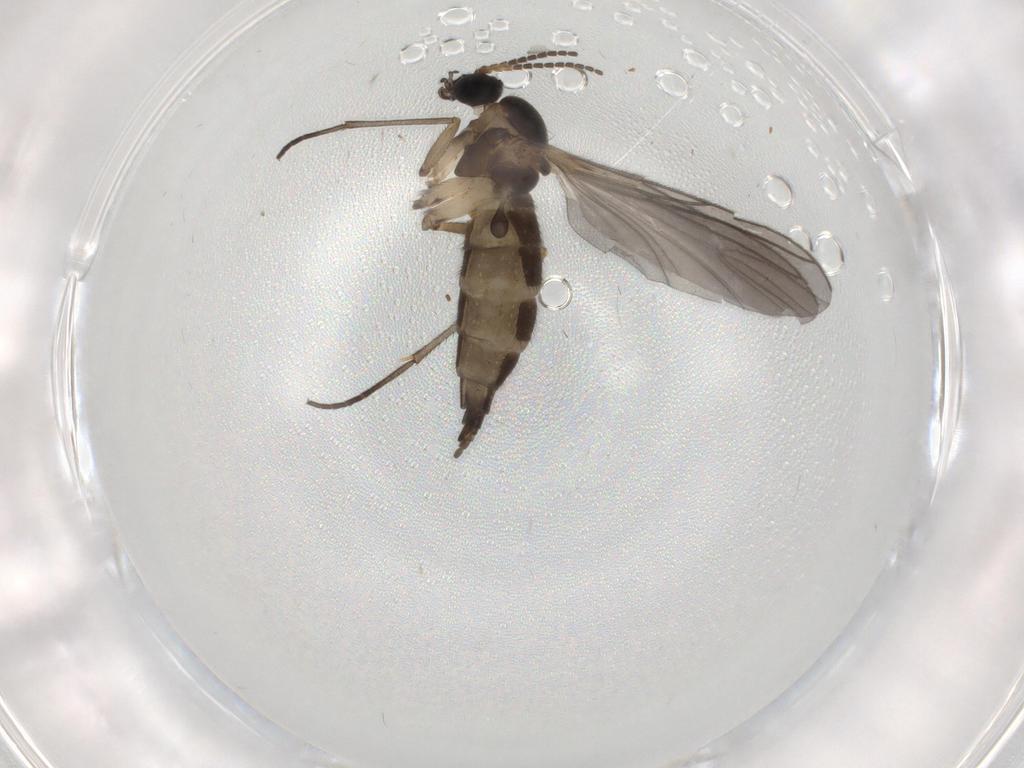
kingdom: Animalia
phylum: Arthropoda
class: Insecta
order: Diptera
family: Sciaridae
